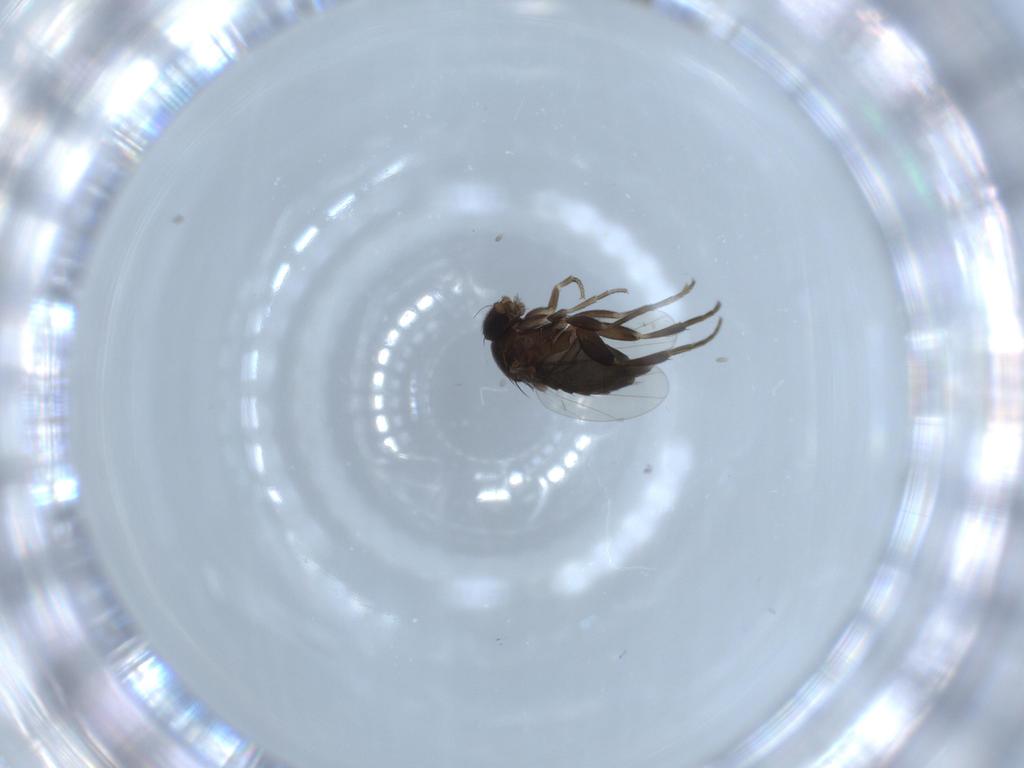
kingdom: Animalia
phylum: Arthropoda
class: Insecta
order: Diptera
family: Phoridae
